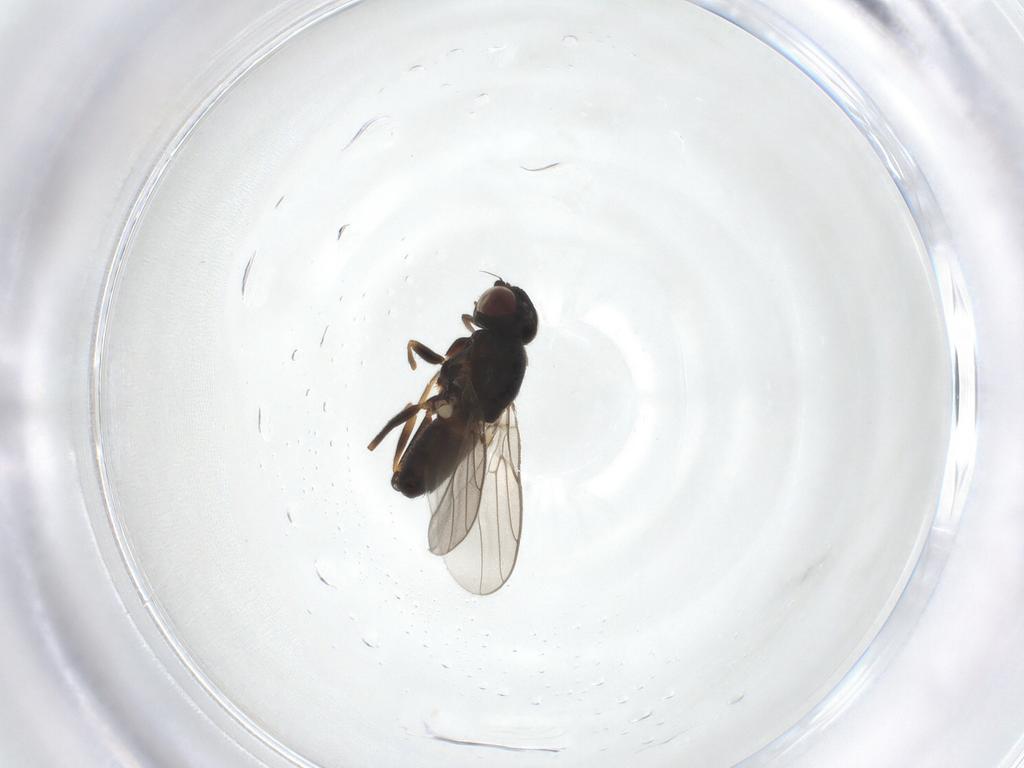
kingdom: Animalia
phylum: Arthropoda
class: Insecta
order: Diptera
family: Chloropidae
